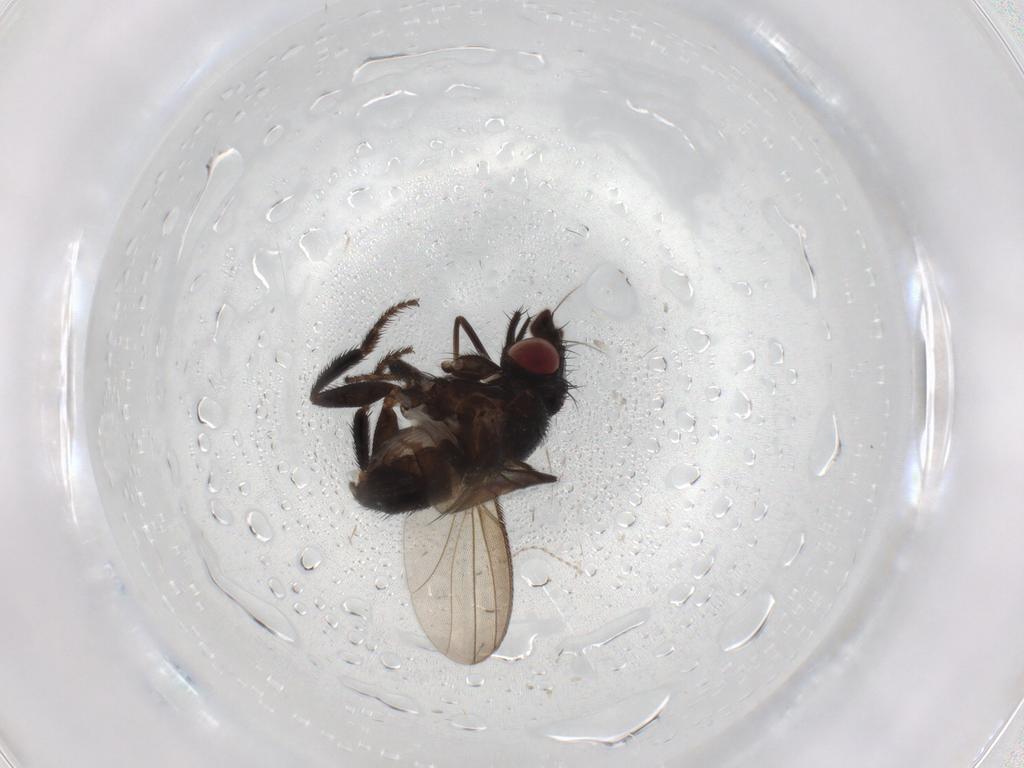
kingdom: Animalia
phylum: Arthropoda
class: Insecta
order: Diptera
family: Milichiidae
